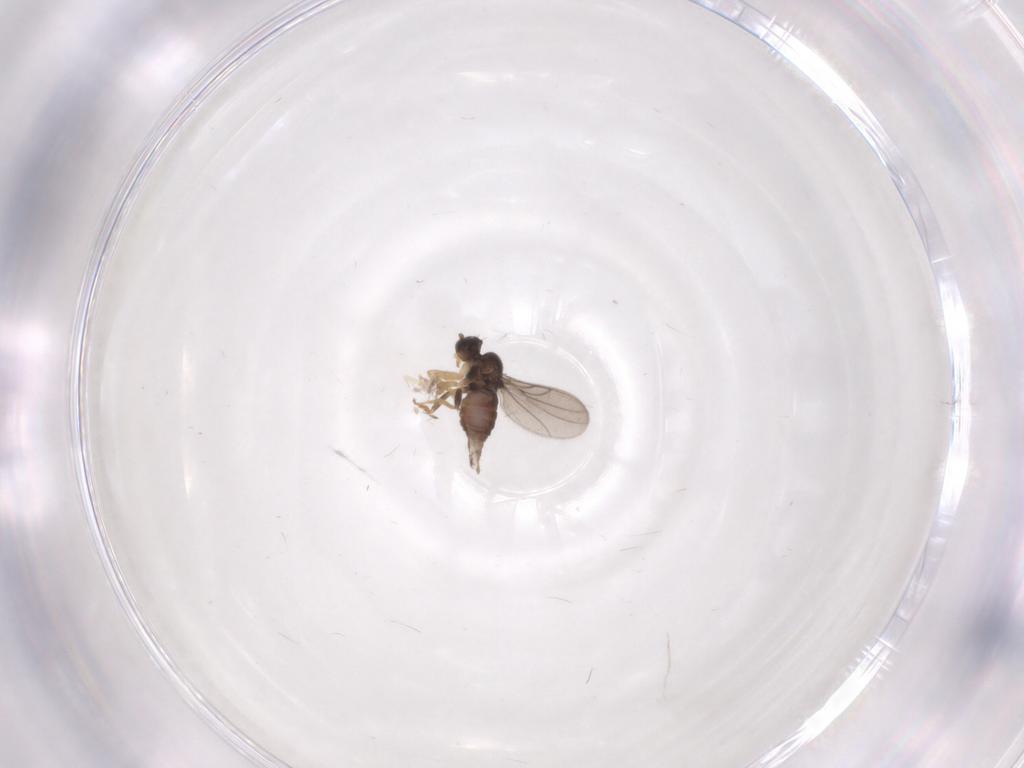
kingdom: Animalia
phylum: Arthropoda
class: Insecta
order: Diptera
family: Hybotidae
